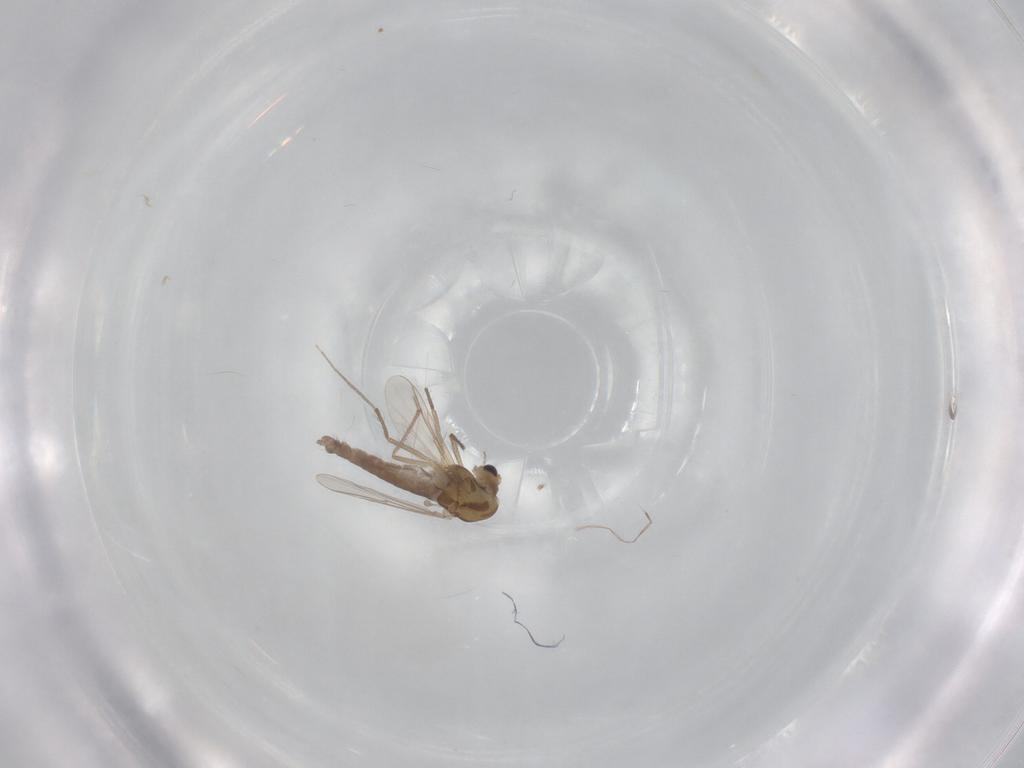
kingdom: Animalia
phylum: Arthropoda
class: Insecta
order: Diptera
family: Chironomidae
